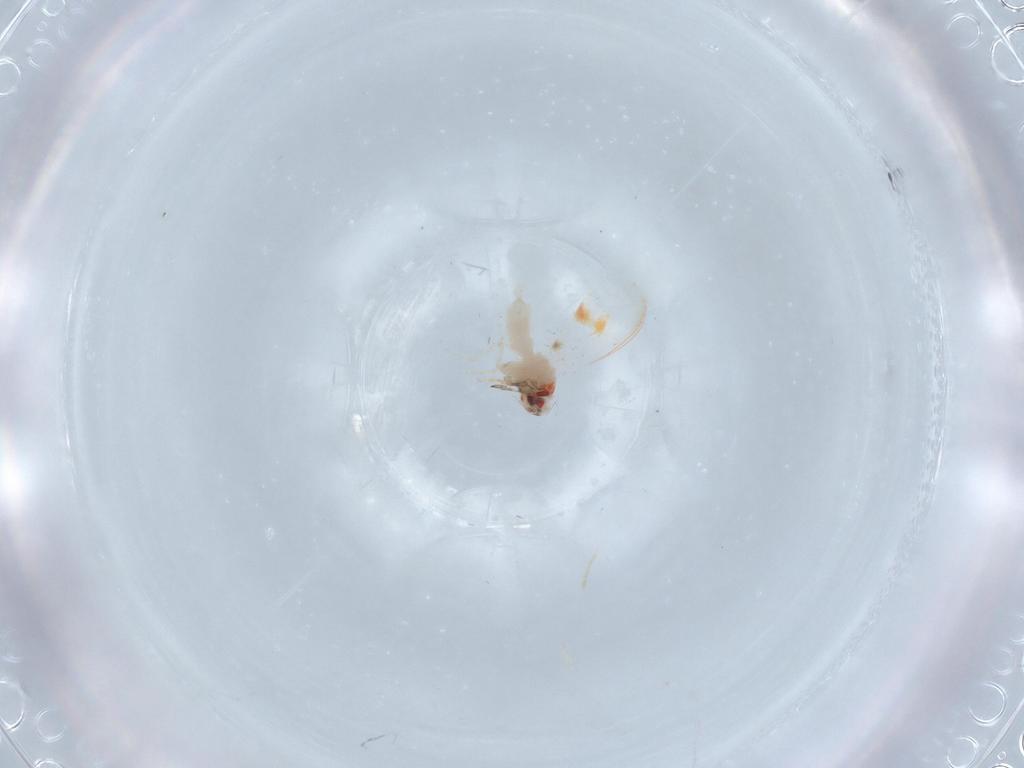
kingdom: Animalia
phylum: Arthropoda
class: Insecta
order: Hemiptera
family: Aleyrodidae
